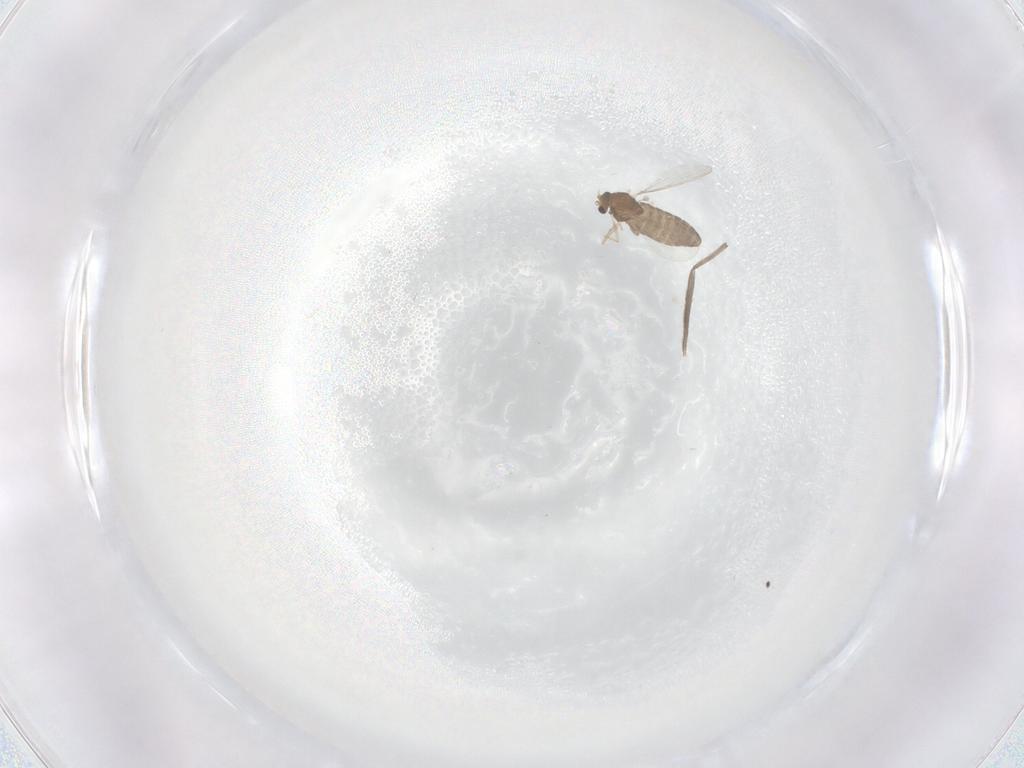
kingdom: Animalia
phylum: Arthropoda
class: Insecta
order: Diptera
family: Chironomidae
